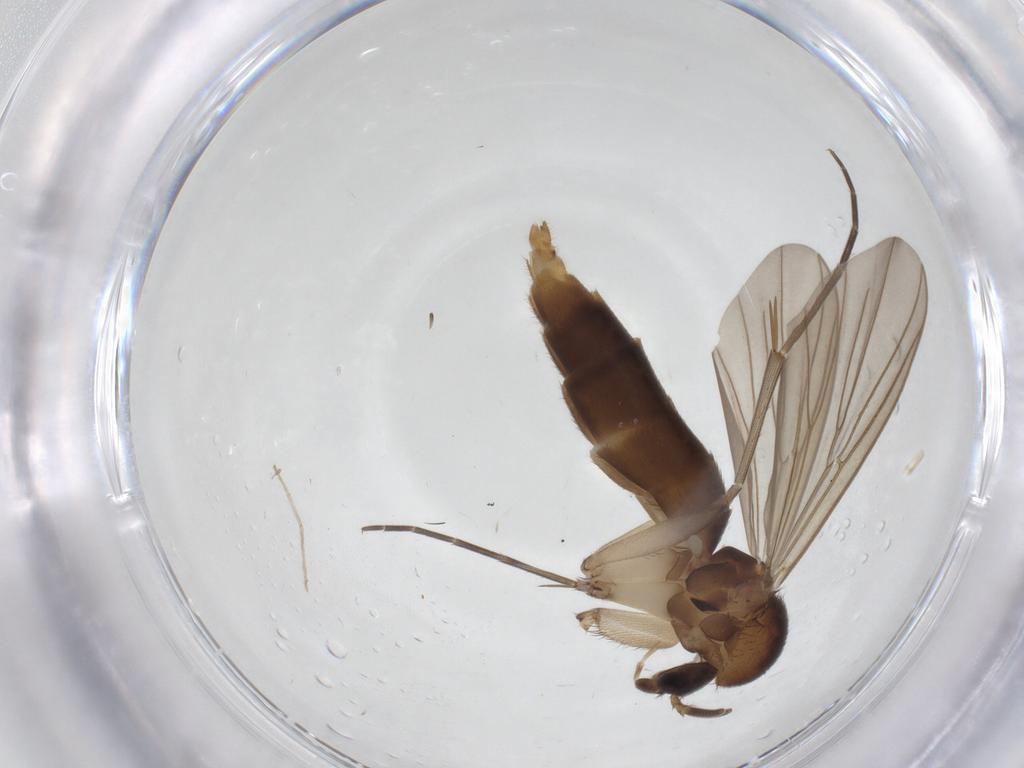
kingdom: Animalia
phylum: Arthropoda
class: Insecta
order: Diptera
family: Mycetophilidae
